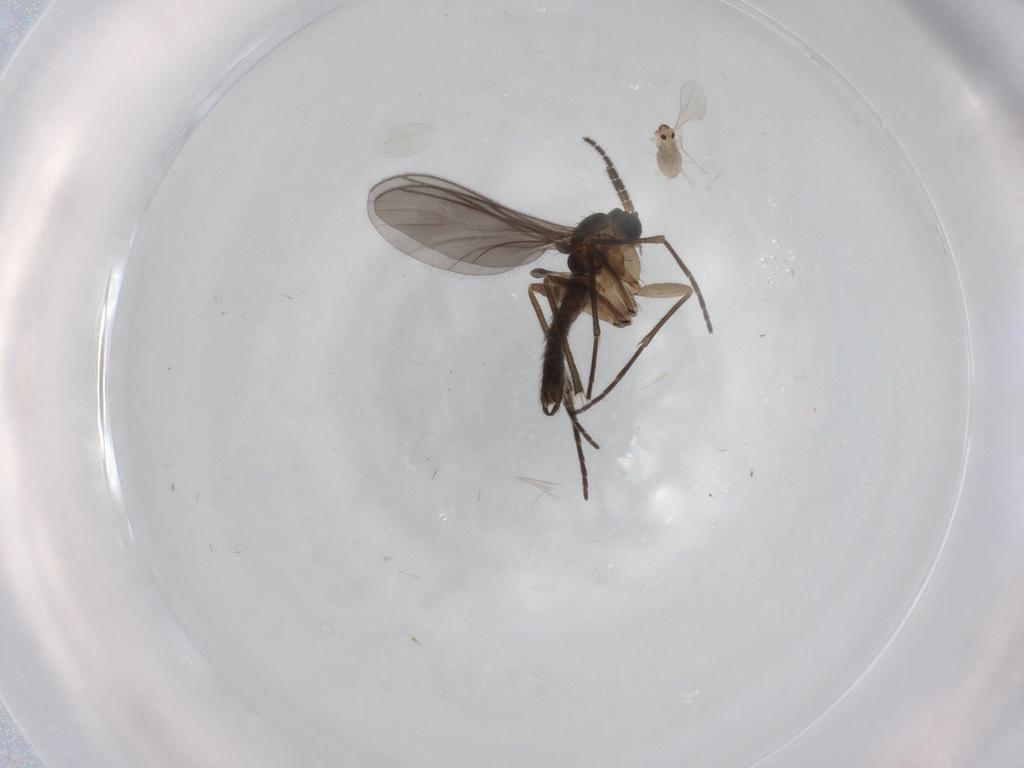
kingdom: Animalia
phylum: Arthropoda
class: Insecta
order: Diptera
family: Sciaridae
